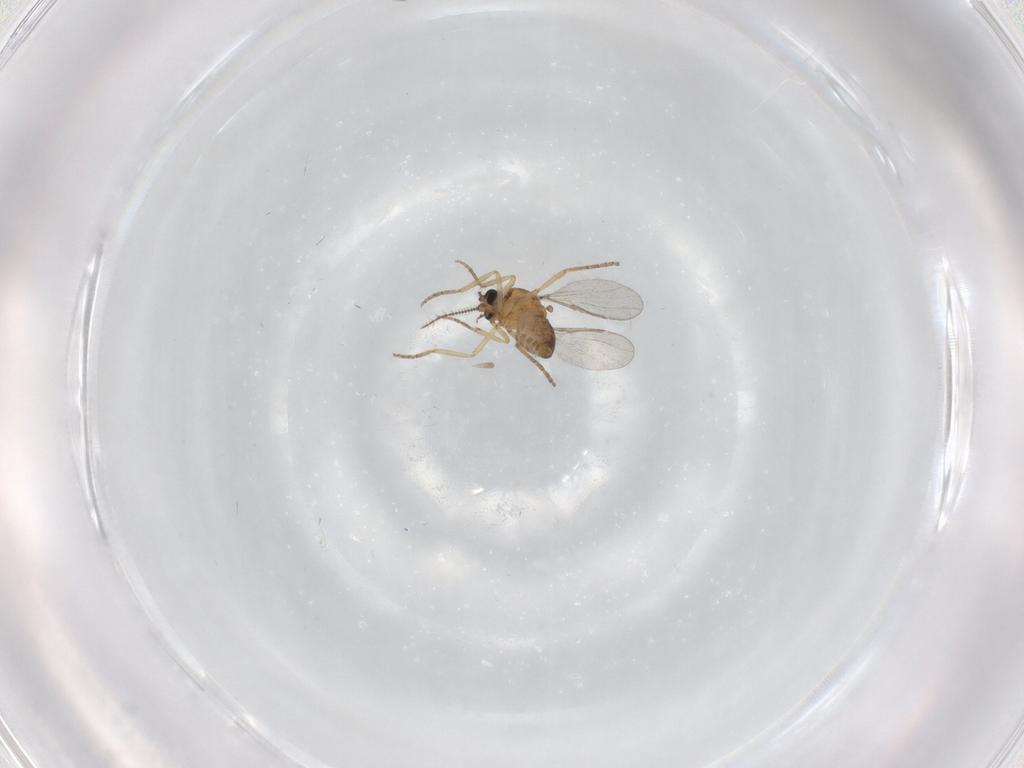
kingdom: Animalia
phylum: Arthropoda
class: Insecta
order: Diptera
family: Ceratopogonidae
